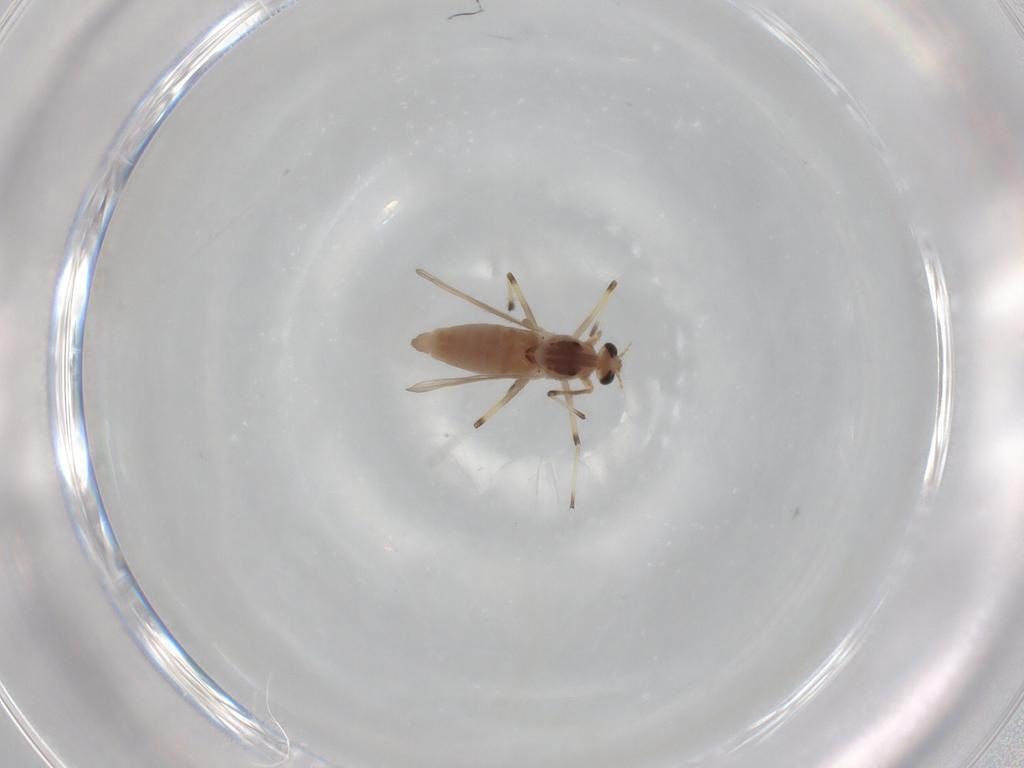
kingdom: Animalia
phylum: Arthropoda
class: Insecta
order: Diptera
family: Chironomidae
